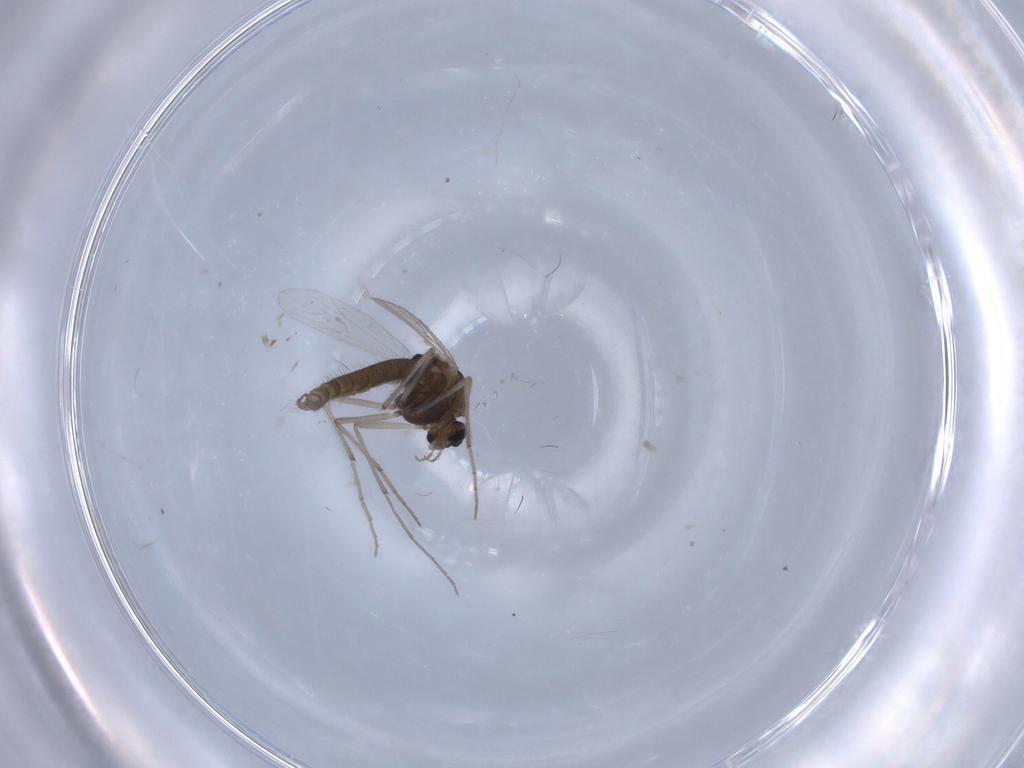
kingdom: Animalia
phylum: Arthropoda
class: Insecta
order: Diptera
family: Chironomidae
